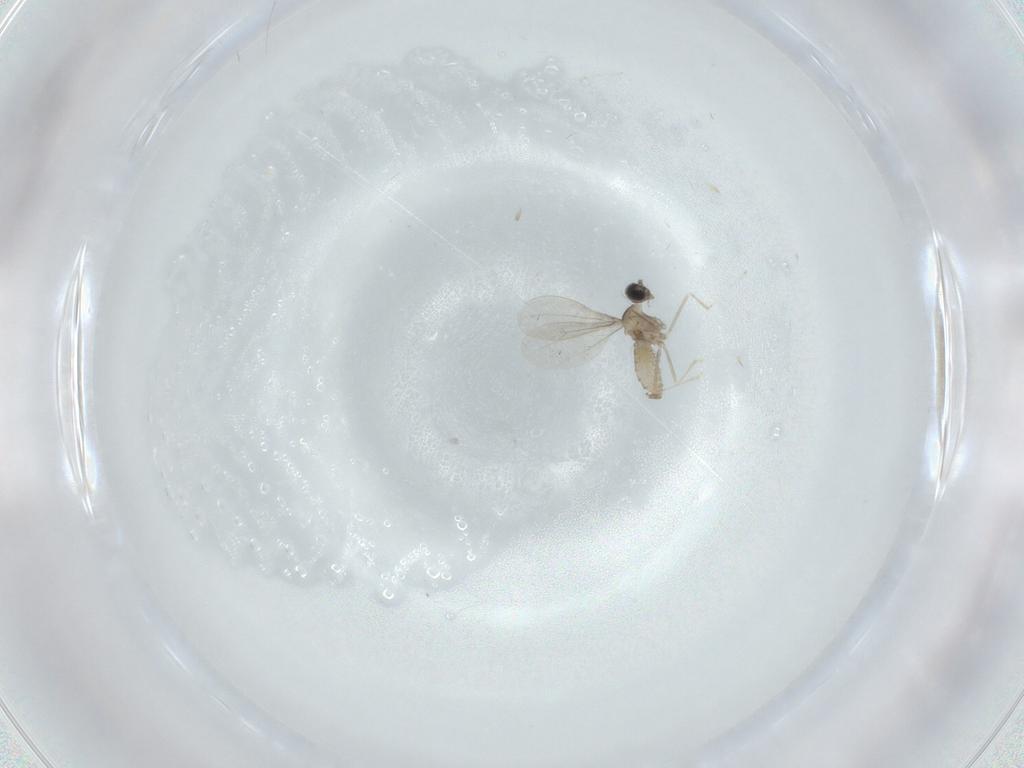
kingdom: Animalia
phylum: Arthropoda
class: Insecta
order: Diptera
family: Cecidomyiidae
